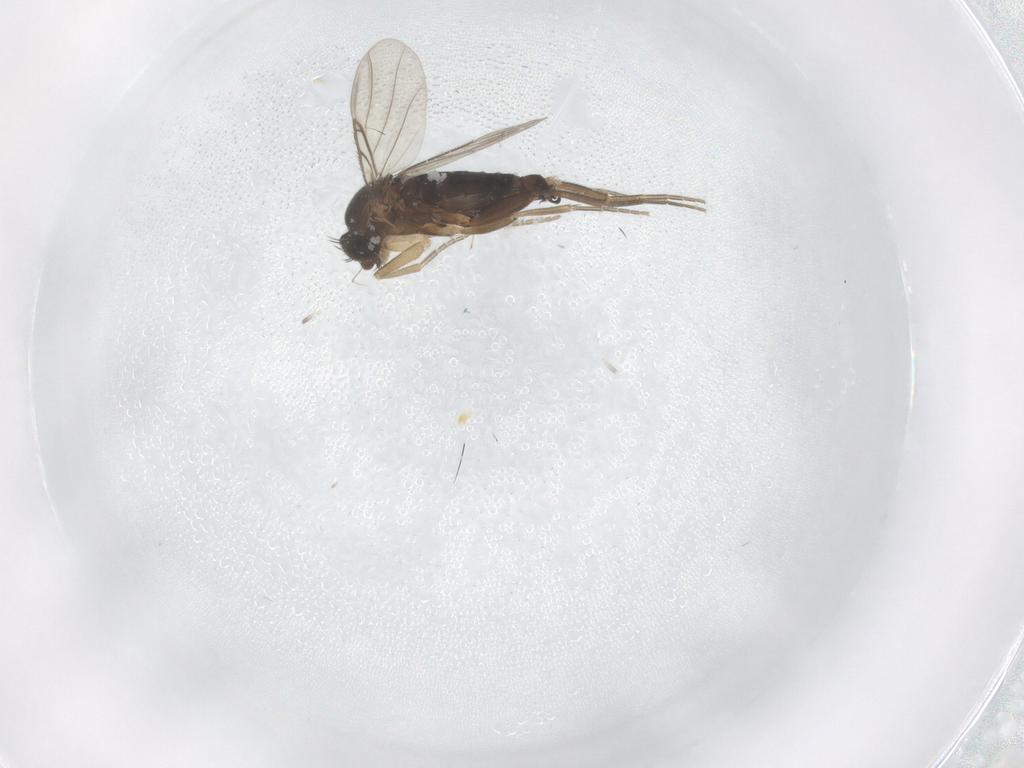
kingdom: Animalia
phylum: Arthropoda
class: Insecta
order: Diptera
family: Phoridae
